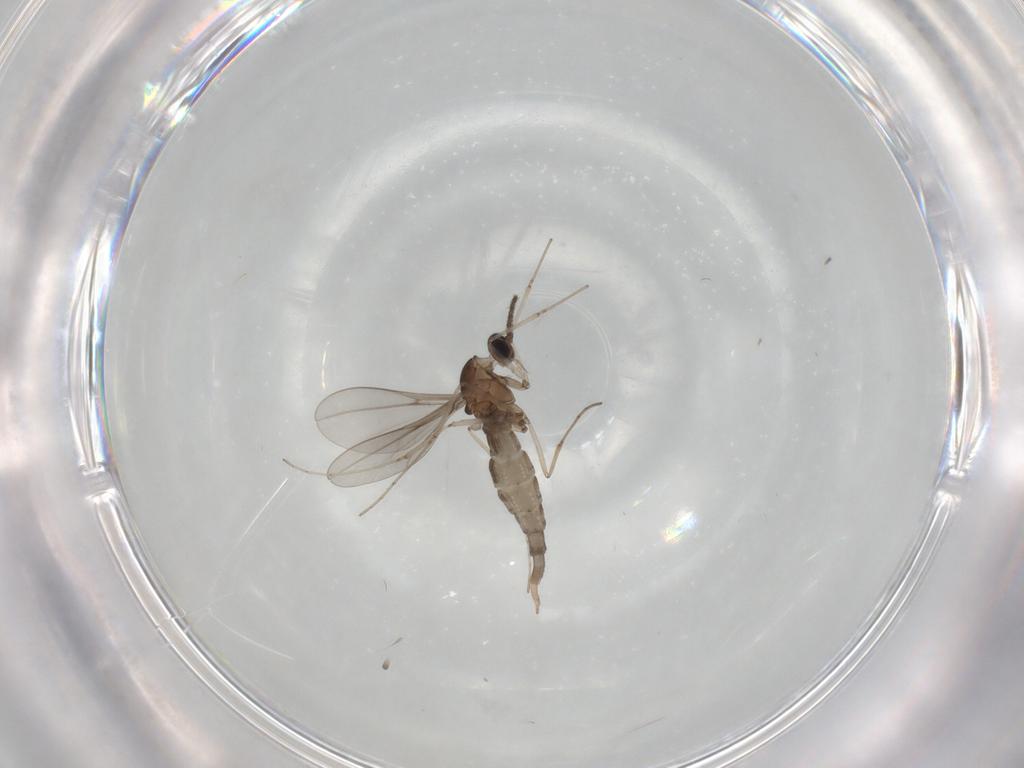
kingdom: Animalia
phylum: Arthropoda
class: Insecta
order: Diptera
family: Cecidomyiidae
